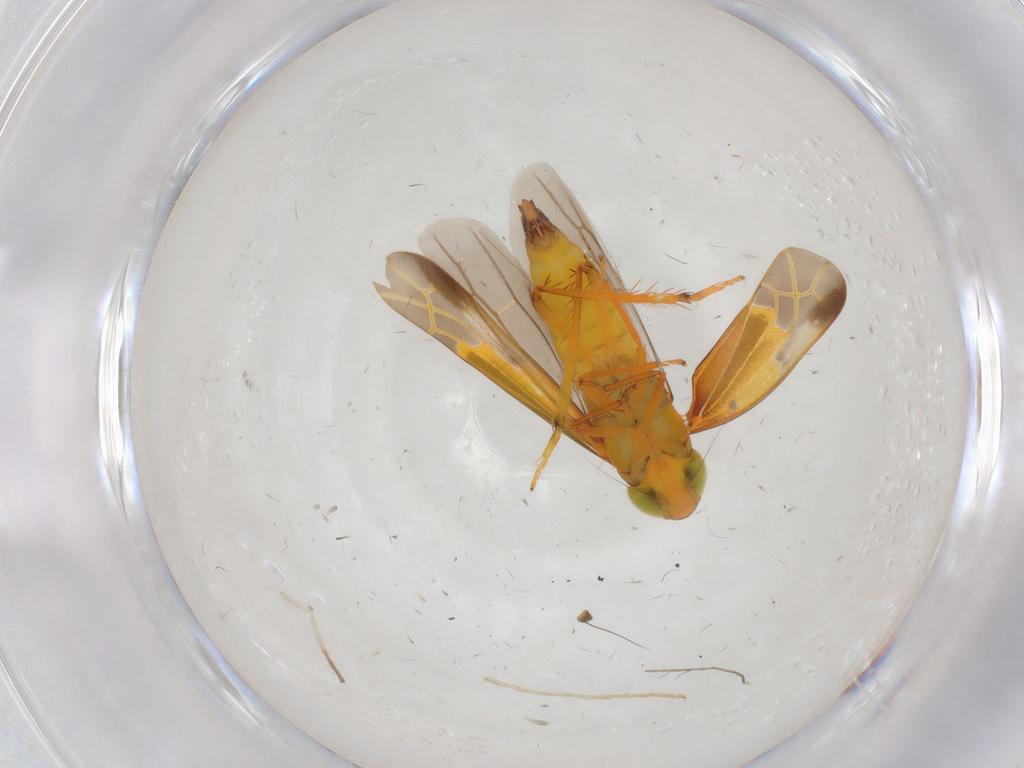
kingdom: Animalia
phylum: Arthropoda
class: Insecta
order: Hemiptera
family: Cicadellidae
